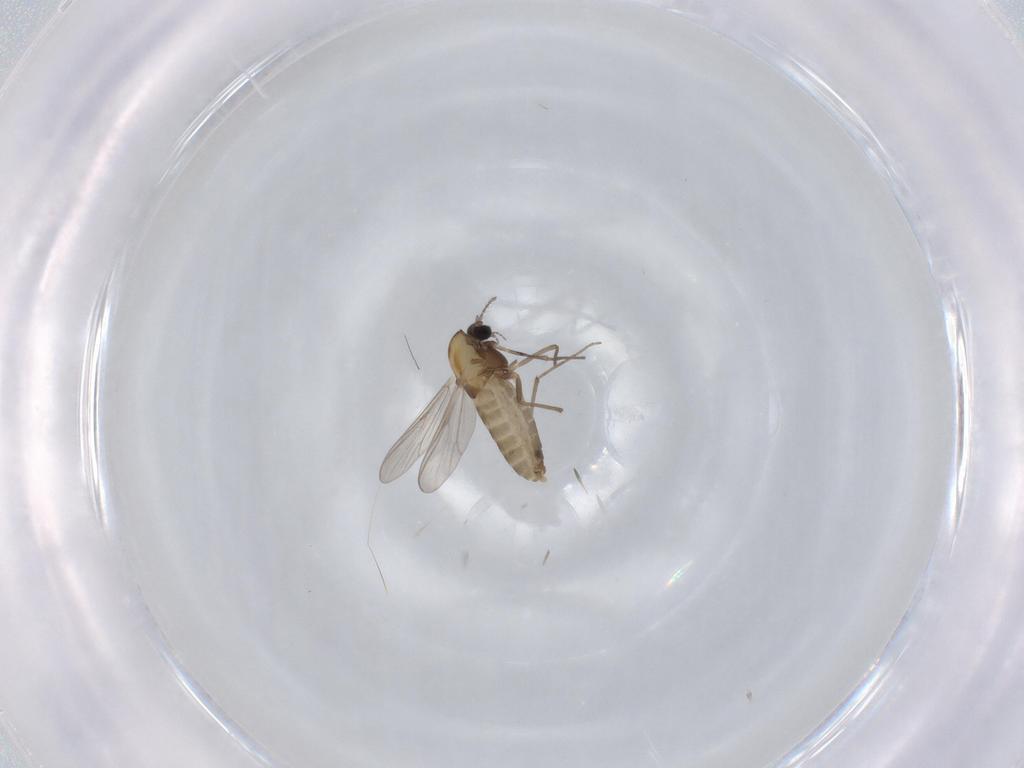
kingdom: Animalia
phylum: Arthropoda
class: Insecta
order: Diptera
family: Chironomidae
